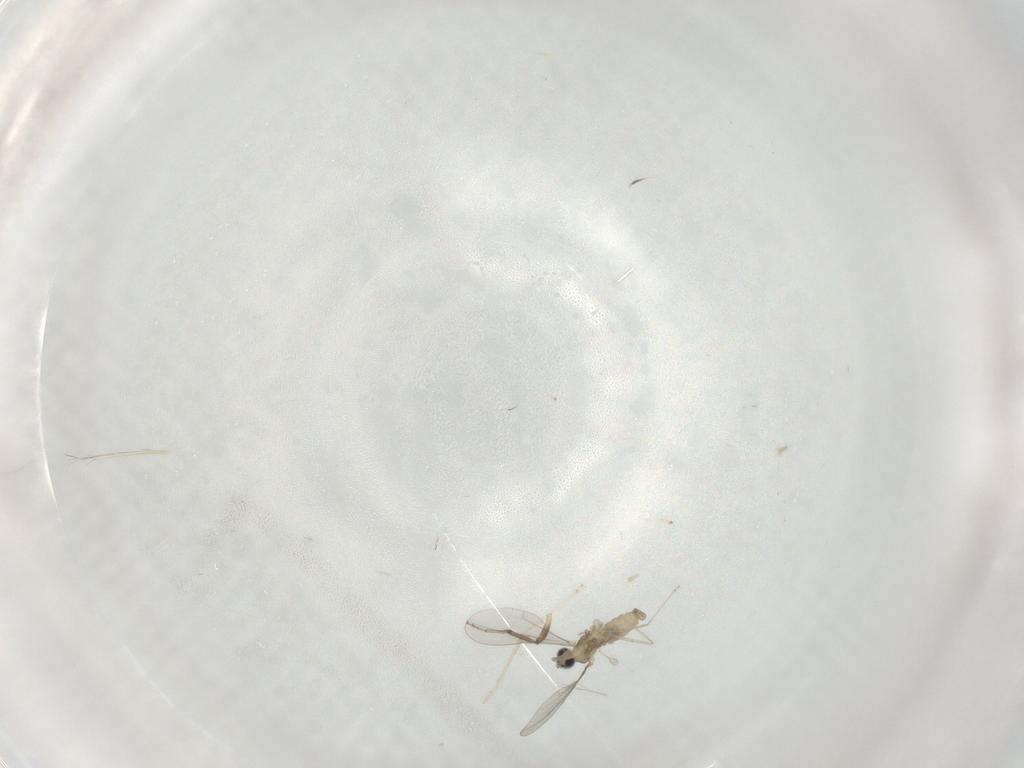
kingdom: Animalia
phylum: Arthropoda
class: Insecta
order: Diptera
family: Cecidomyiidae
